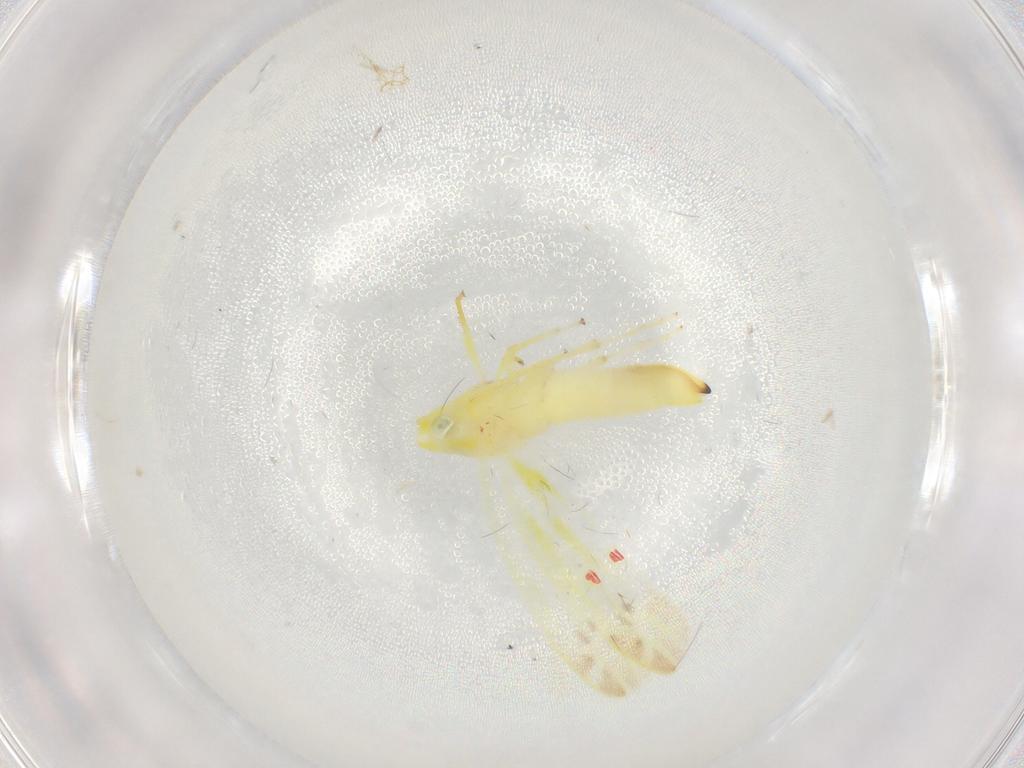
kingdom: Animalia
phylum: Arthropoda
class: Insecta
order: Hemiptera
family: Cicadellidae
